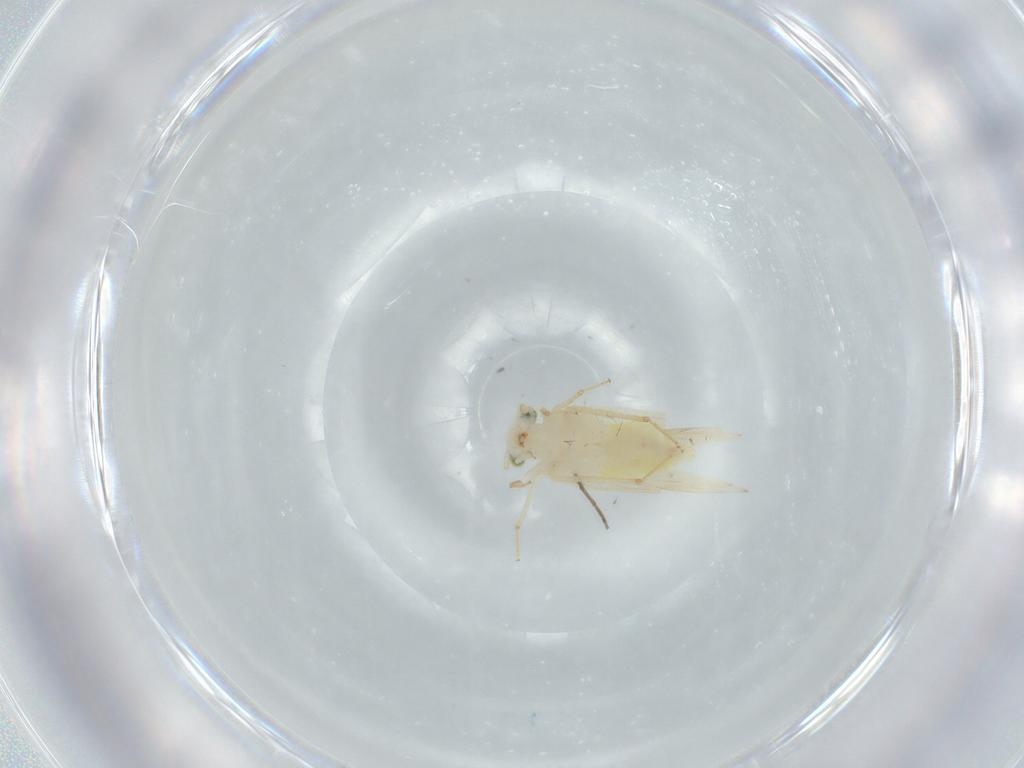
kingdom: Animalia
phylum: Arthropoda
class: Insecta
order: Psocodea
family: Lepidopsocidae
